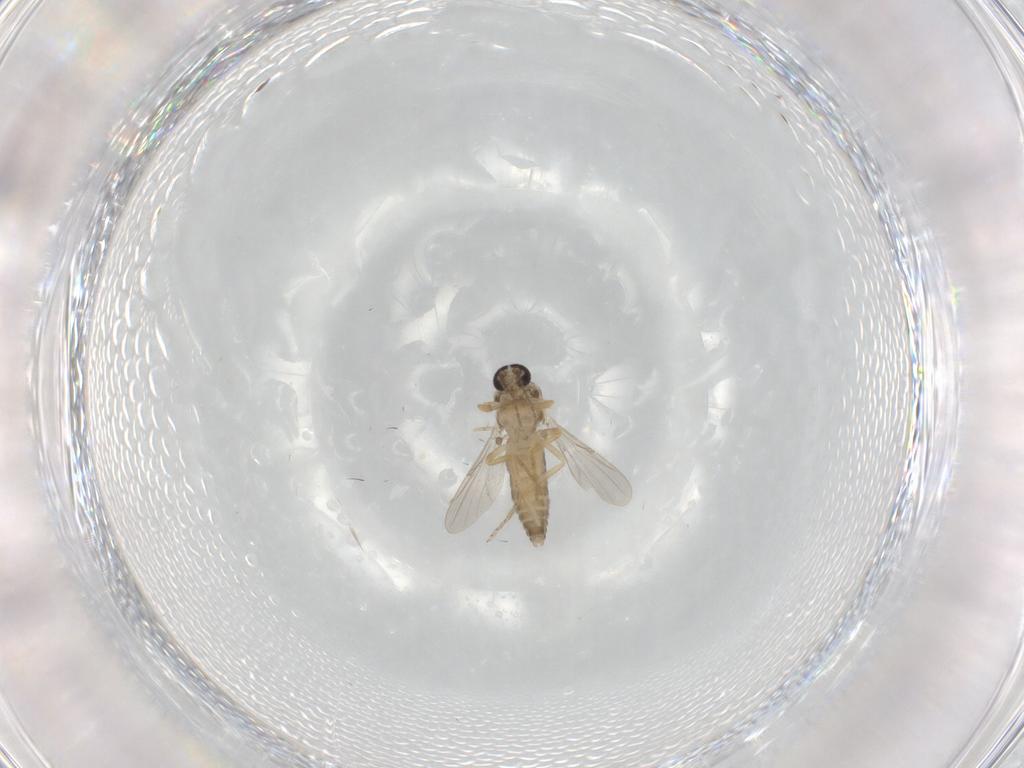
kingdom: Animalia
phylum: Arthropoda
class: Insecta
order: Diptera
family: Ceratopogonidae
